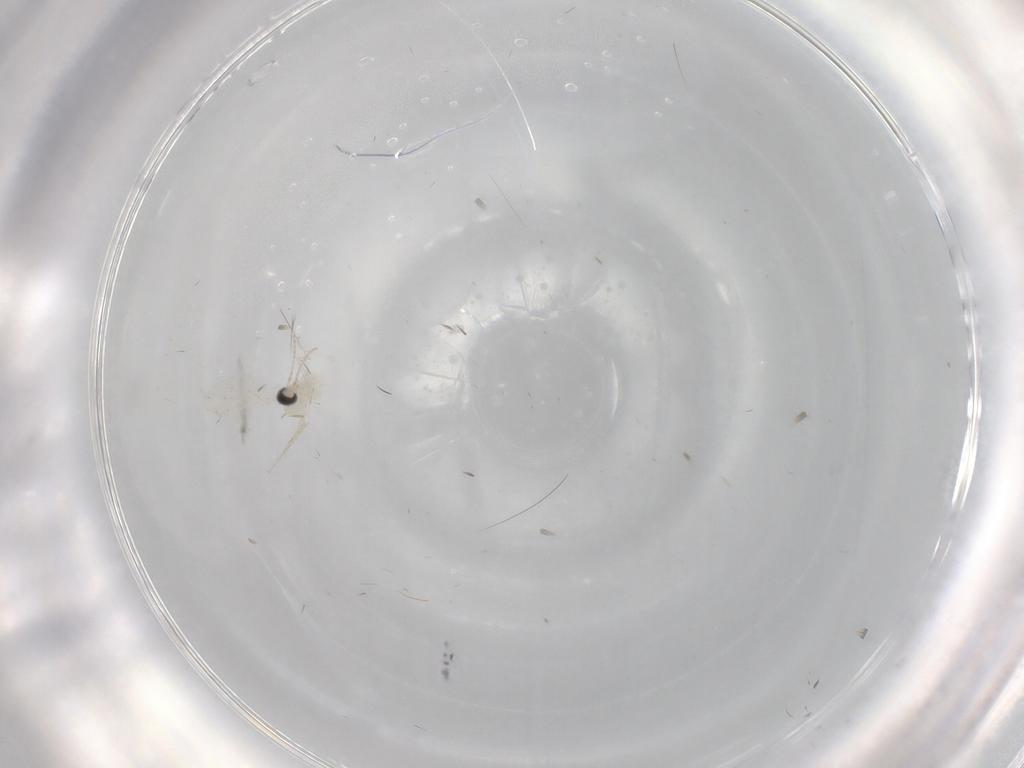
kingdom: Animalia
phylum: Arthropoda
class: Insecta
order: Diptera
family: Cecidomyiidae
